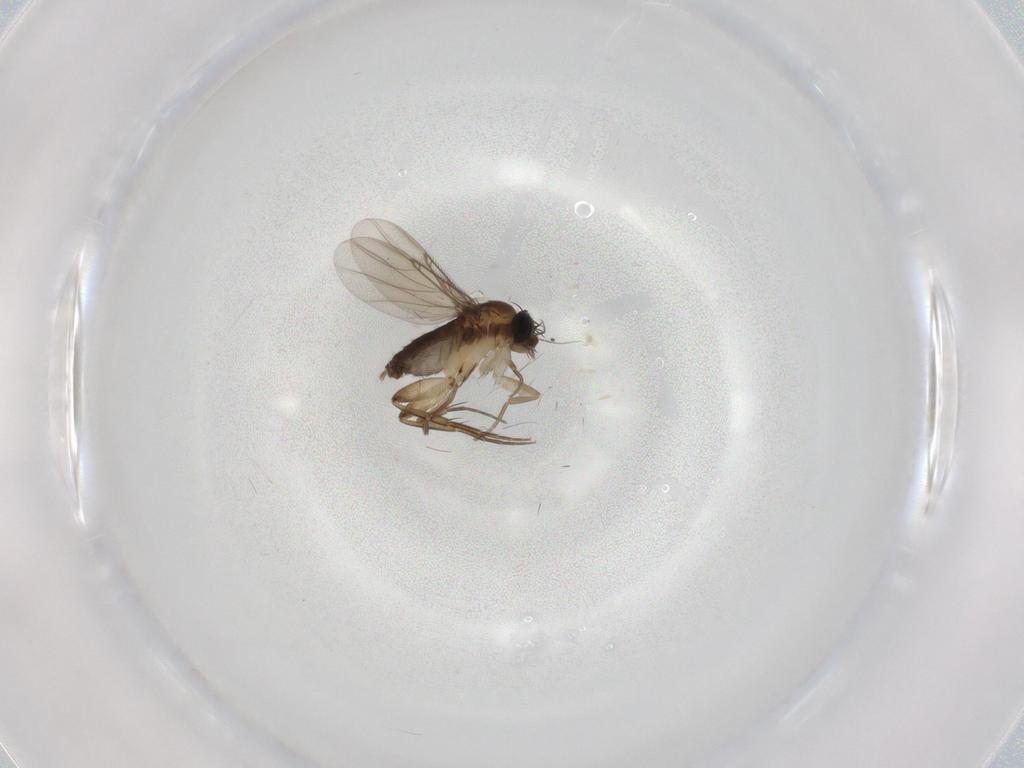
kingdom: Animalia
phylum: Arthropoda
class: Insecta
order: Diptera
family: Phoridae
